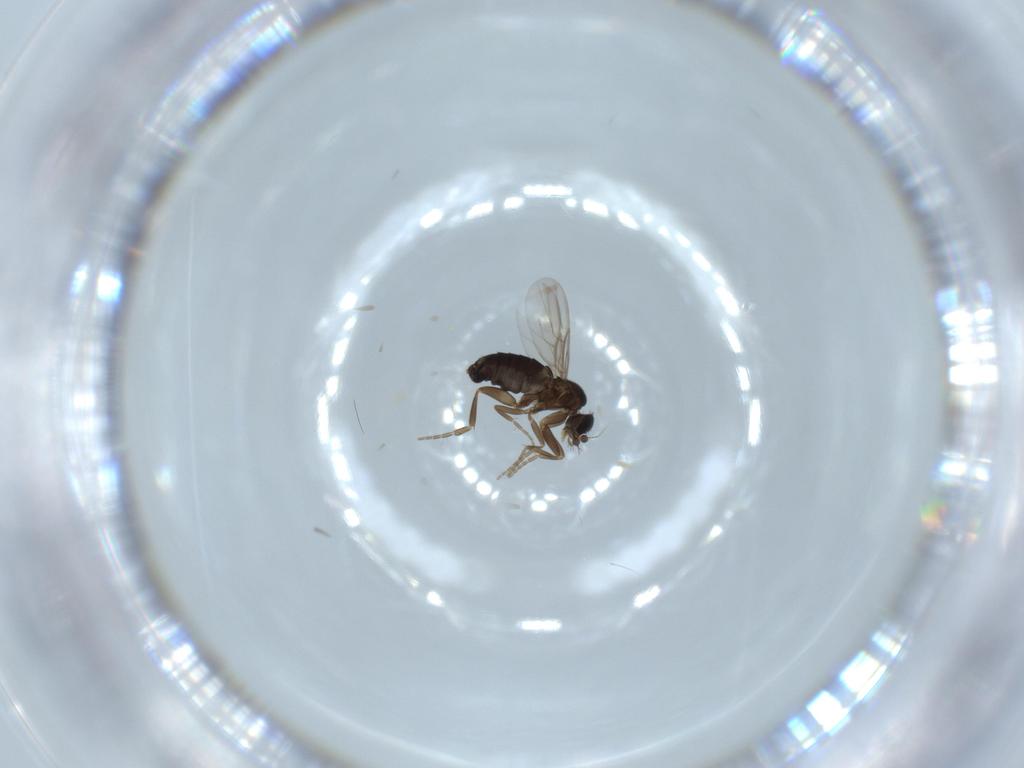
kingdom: Animalia
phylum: Arthropoda
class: Insecta
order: Diptera
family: Phoridae
